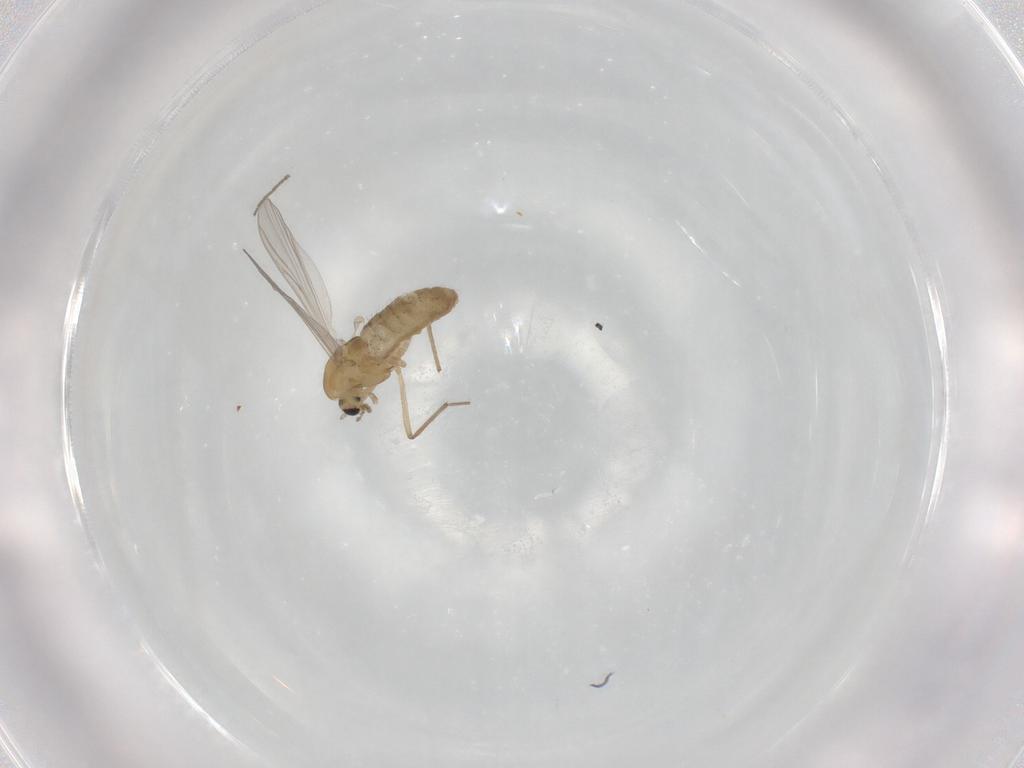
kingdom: Animalia
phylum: Arthropoda
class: Insecta
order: Diptera
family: Chironomidae
